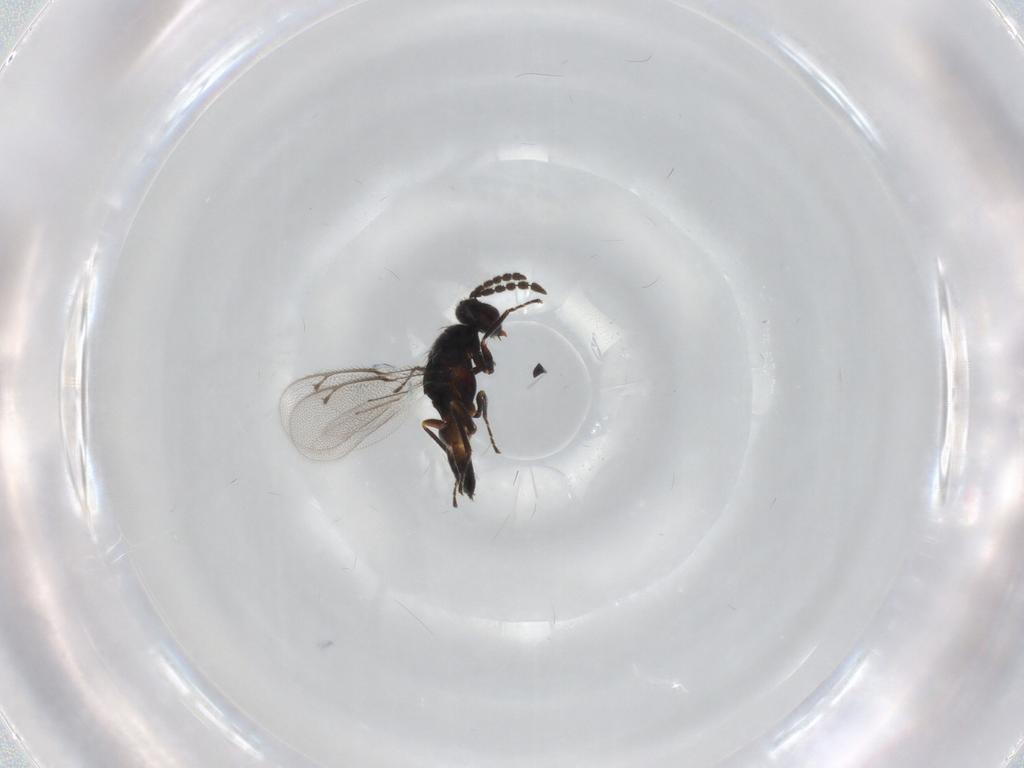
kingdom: Animalia
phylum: Arthropoda
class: Insecta
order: Hymenoptera
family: Eulophidae
